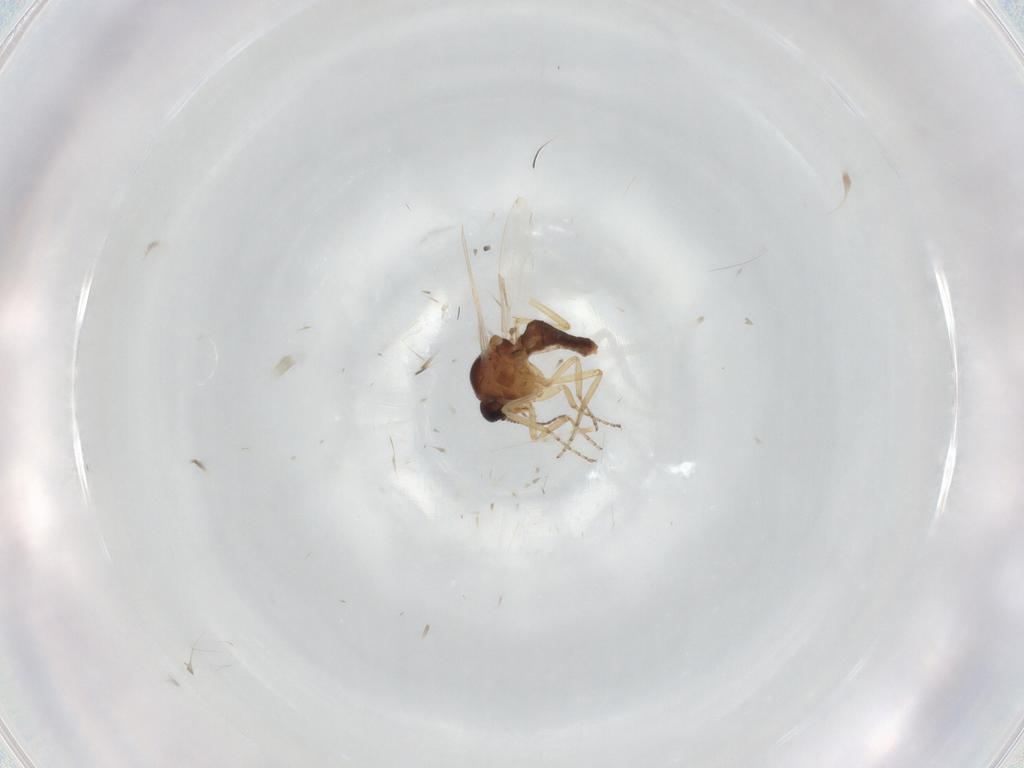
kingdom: Animalia
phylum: Arthropoda
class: Insecta
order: Diptera
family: Ceratopogonidae
